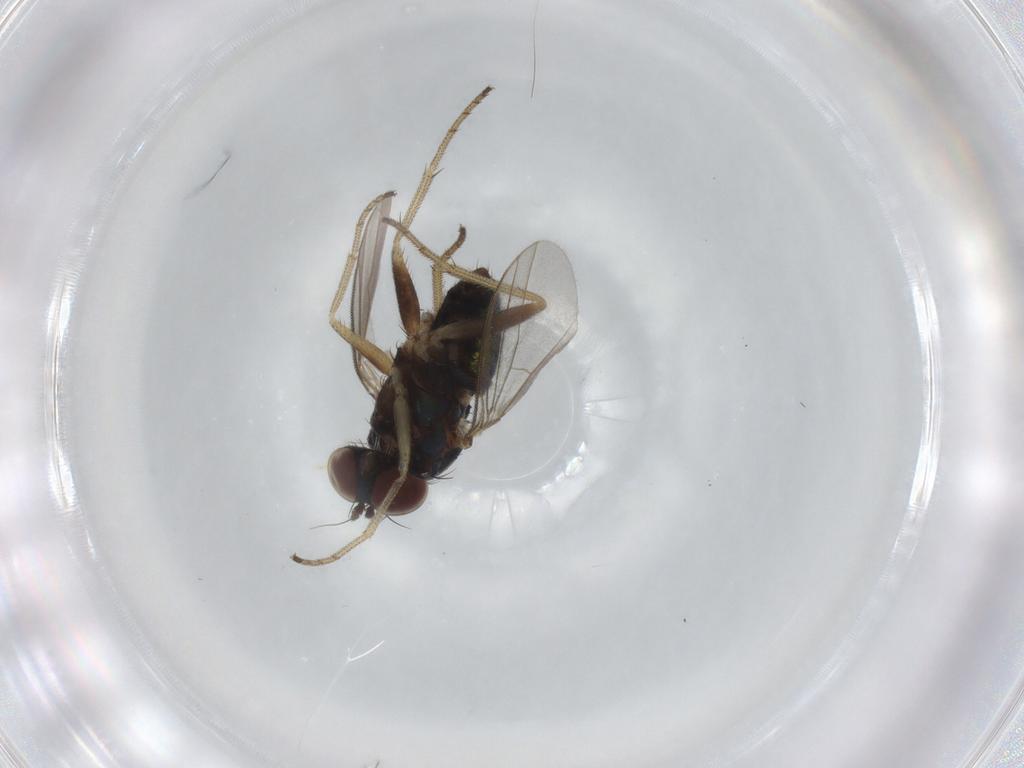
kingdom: Animalia
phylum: Arthropoda
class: Insecta
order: Diptera
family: Dolichopodidae
